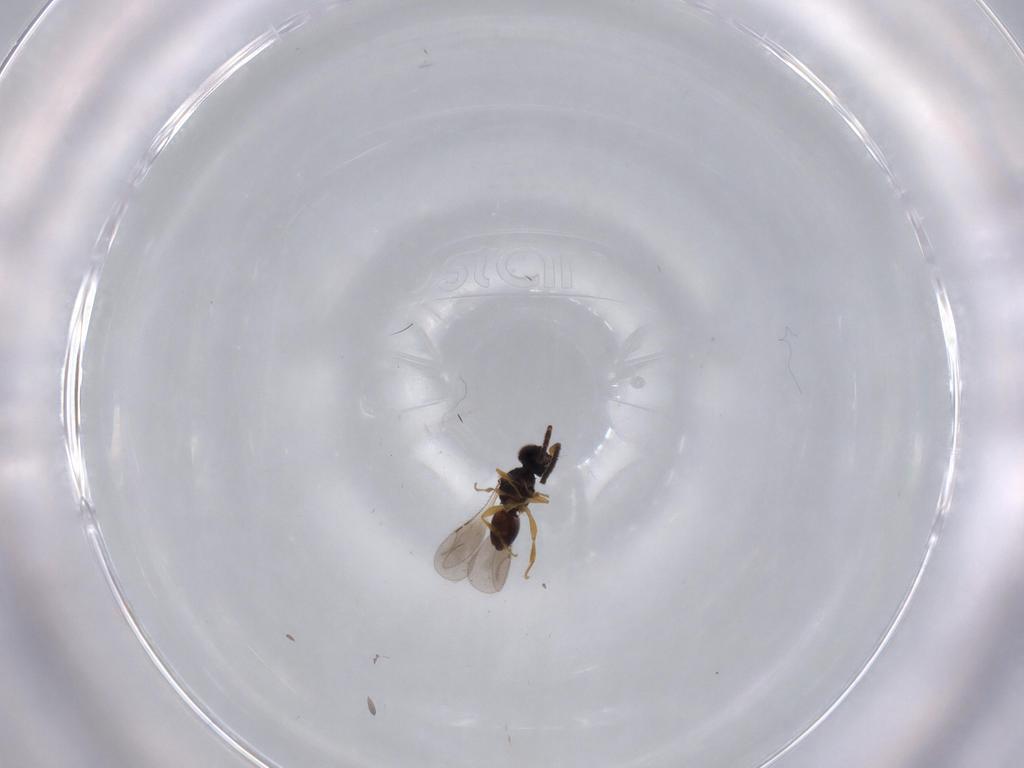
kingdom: Animalia
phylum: Arthropoda
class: Insecta
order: Hymenoptera
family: Ceraphronidae
